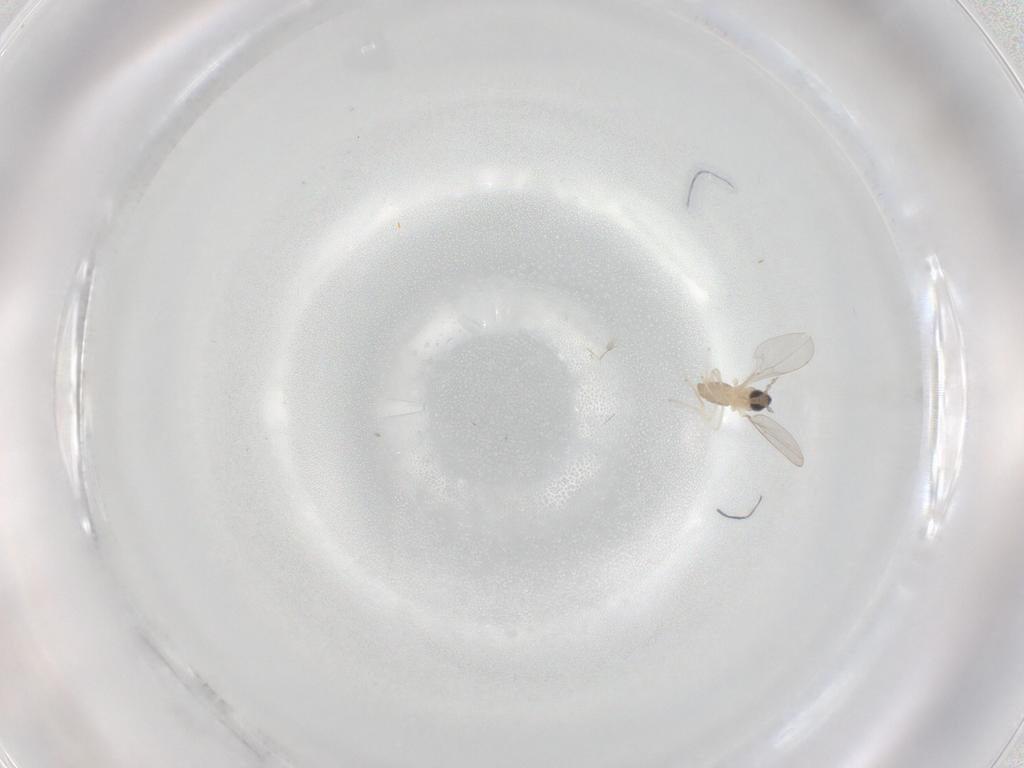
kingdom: Animalia
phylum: Arthropoda
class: Insecta
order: Diptera
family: Cecidomyiidae
